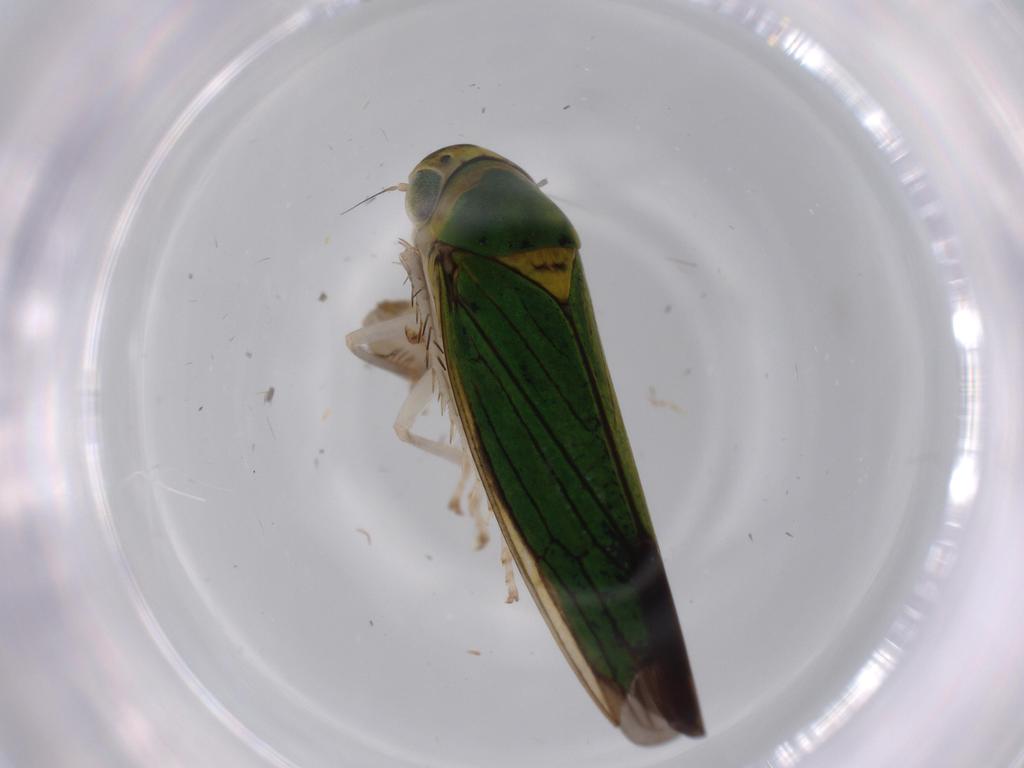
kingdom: Animalia
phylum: Arthropoda
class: Insecta
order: Hemiptera
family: Cicadellidae
